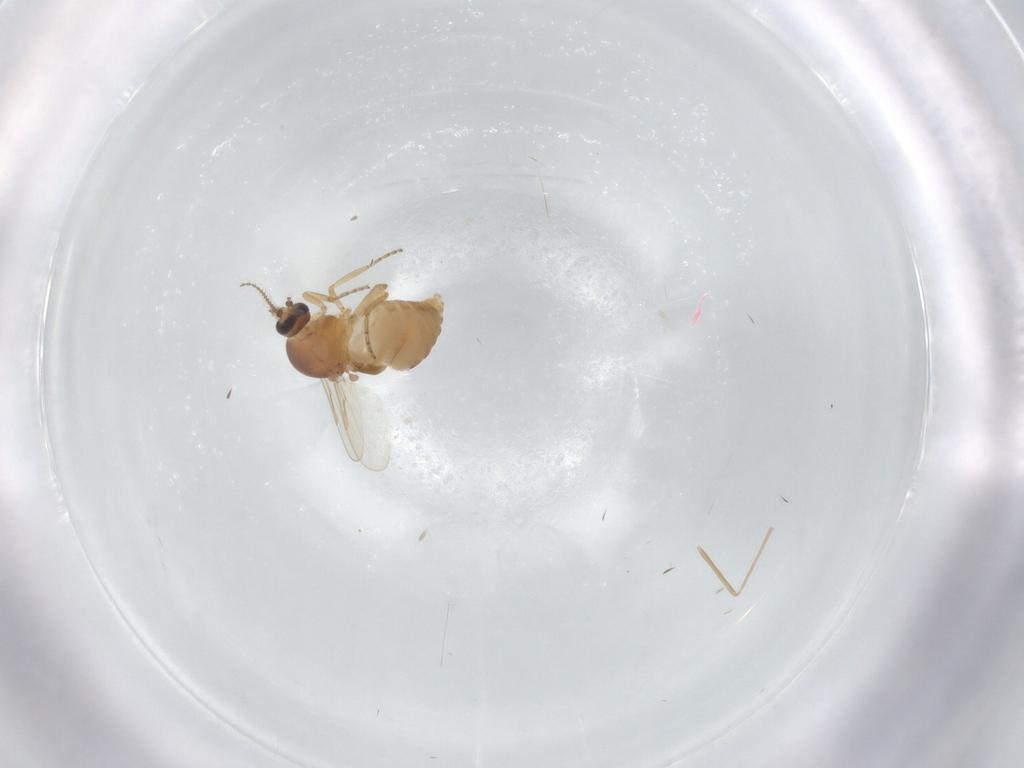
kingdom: Animalia
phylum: Arthropoda
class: Insecta
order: Diptera
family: Ceratopogonidae
